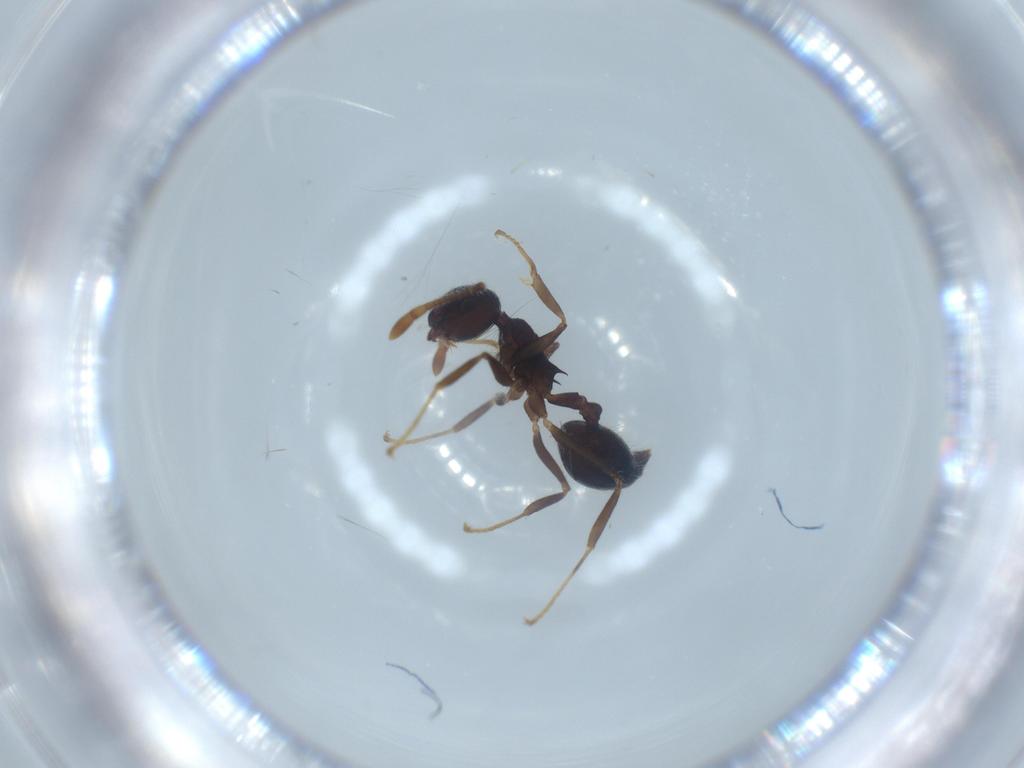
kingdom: Animalia
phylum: Arthropoda
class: Insecta
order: Hymenoptera
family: Formicidae
